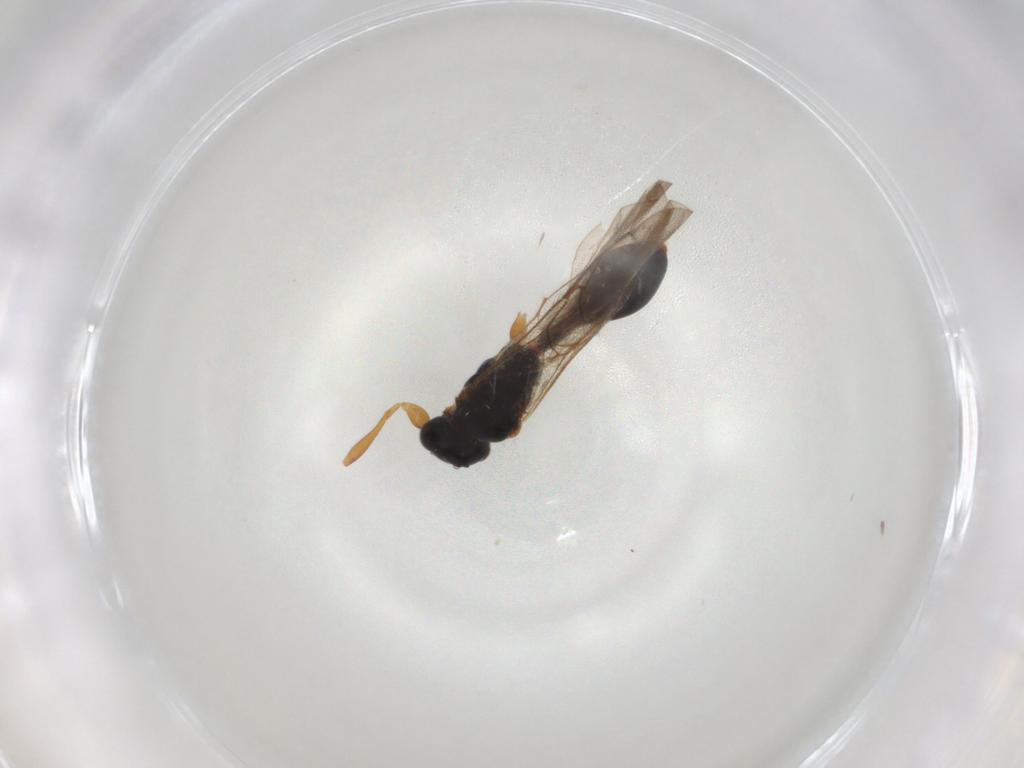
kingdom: Animalia
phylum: Arthropoda
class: Insecta
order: Hymenoptera
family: Diapriidae
